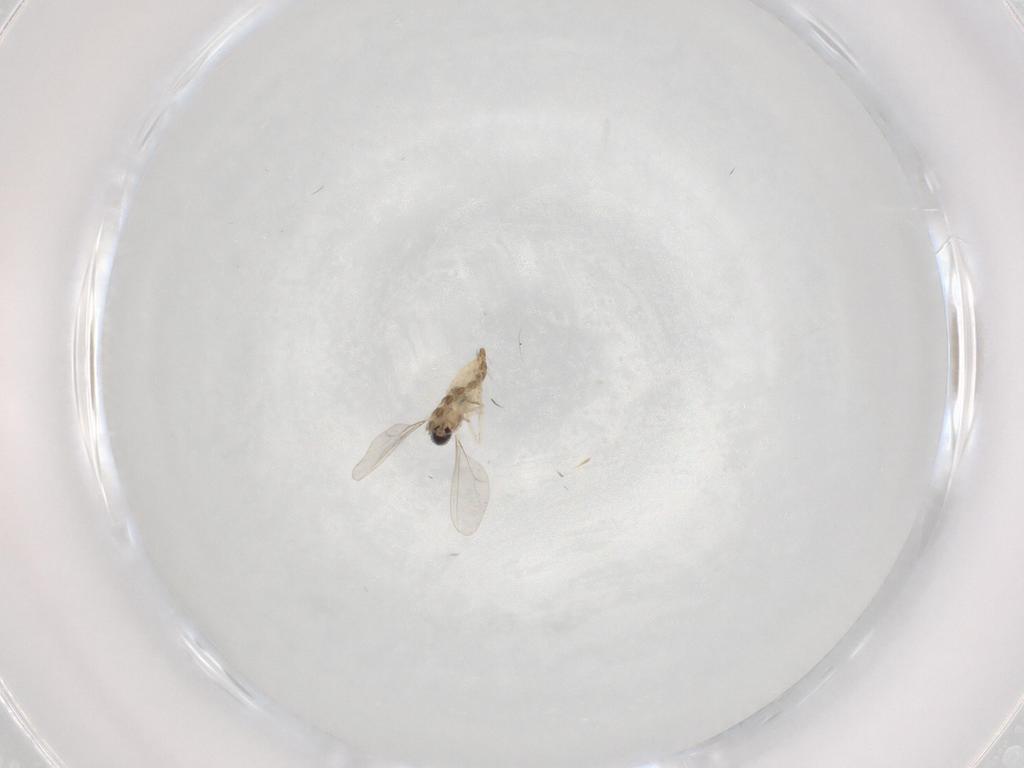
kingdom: Animalia
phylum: Arthropoda
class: Insecta
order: Diptera
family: Cecidomyiidae
